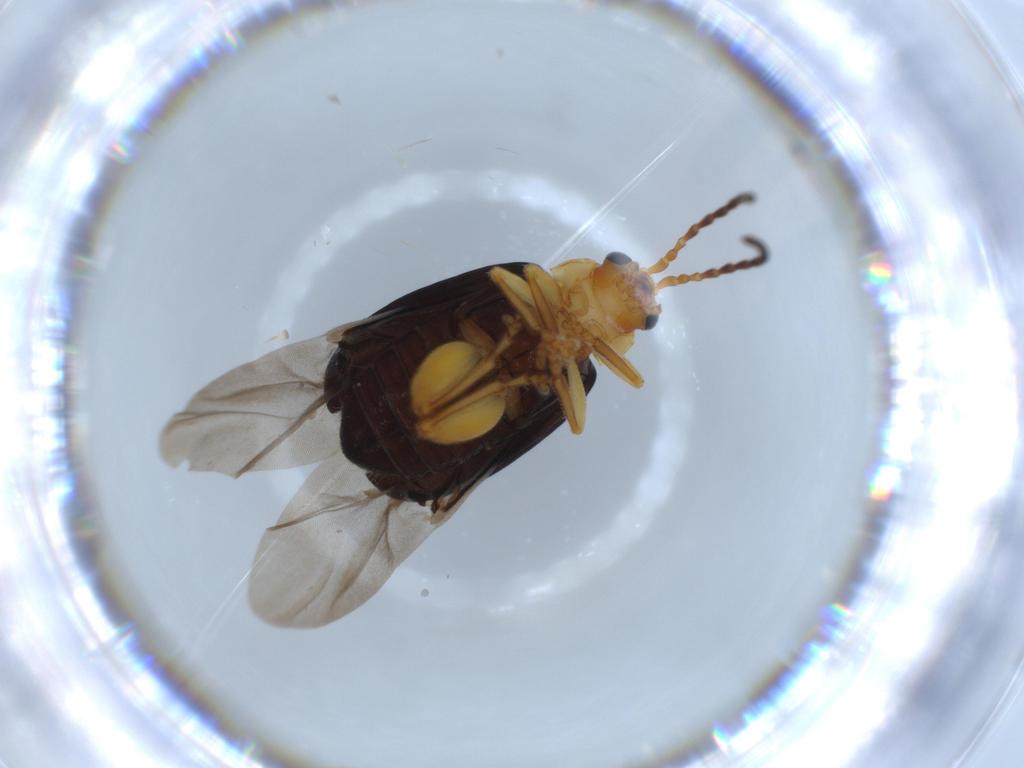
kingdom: Animalia
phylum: Arthropoda
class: Insecta
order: Coleoptera
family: Chrysomelidae
